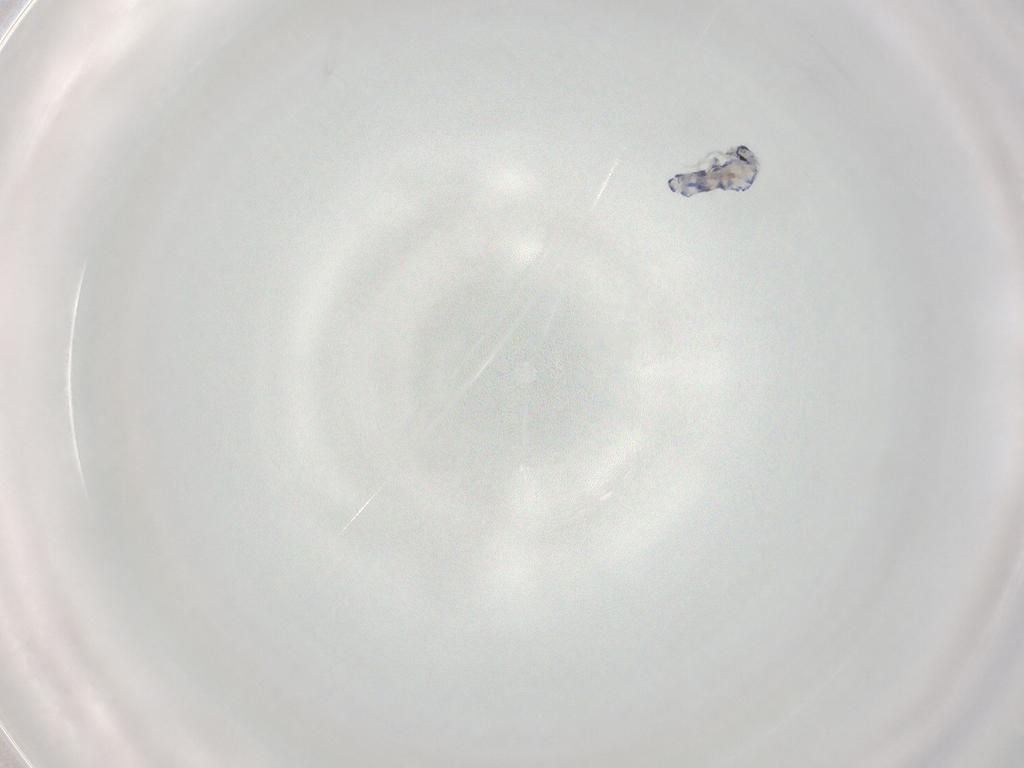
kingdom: Animalia
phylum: Arthropoda
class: Collembola
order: Entomobryomorpha
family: Entomobryidae
